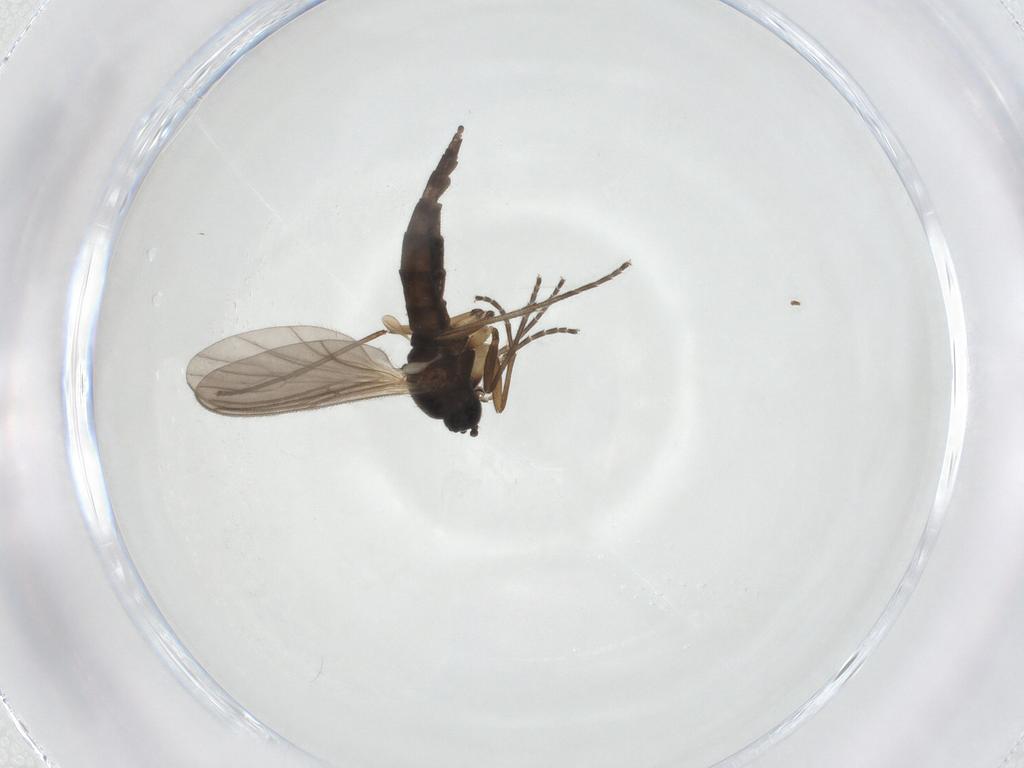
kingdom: Animalia
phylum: Arthropoda
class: Insecta
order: Diptera
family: Sciaridae
